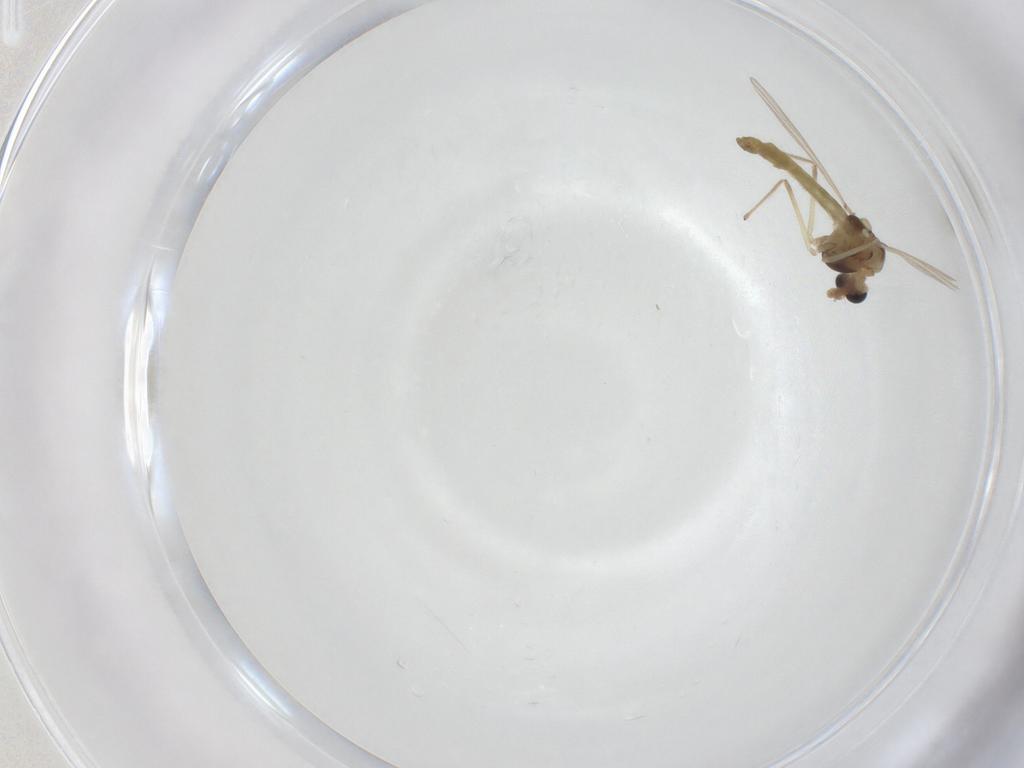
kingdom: Animalia
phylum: Arthropoda
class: Insecta
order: Diptera
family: Chironomidae
